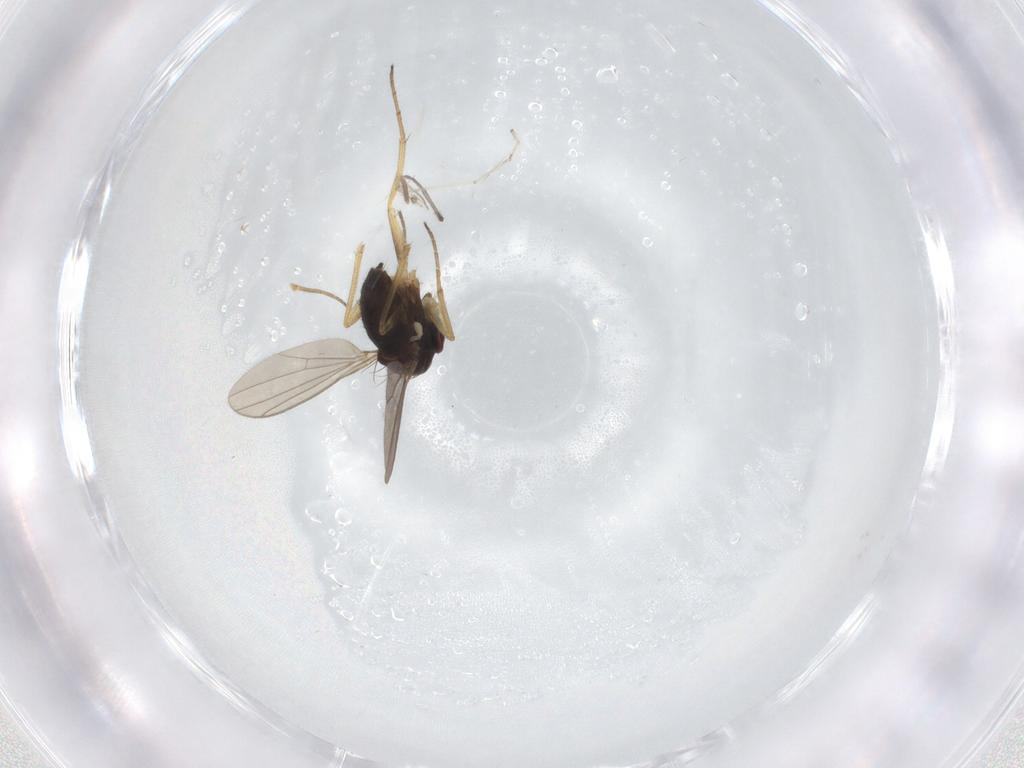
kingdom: Animalia
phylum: Arthropoda
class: Insecta
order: Diptera
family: Sciaridae
